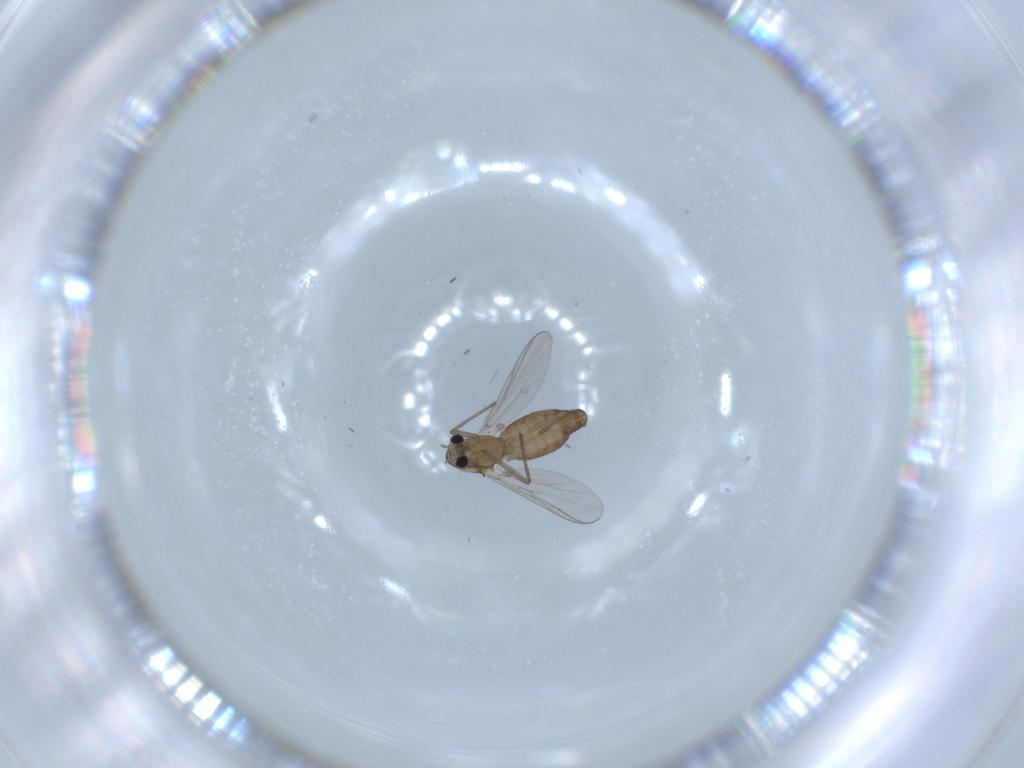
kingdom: Animalia
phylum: Arthropoda
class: Insecta
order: Diptera
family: Chironomidae
